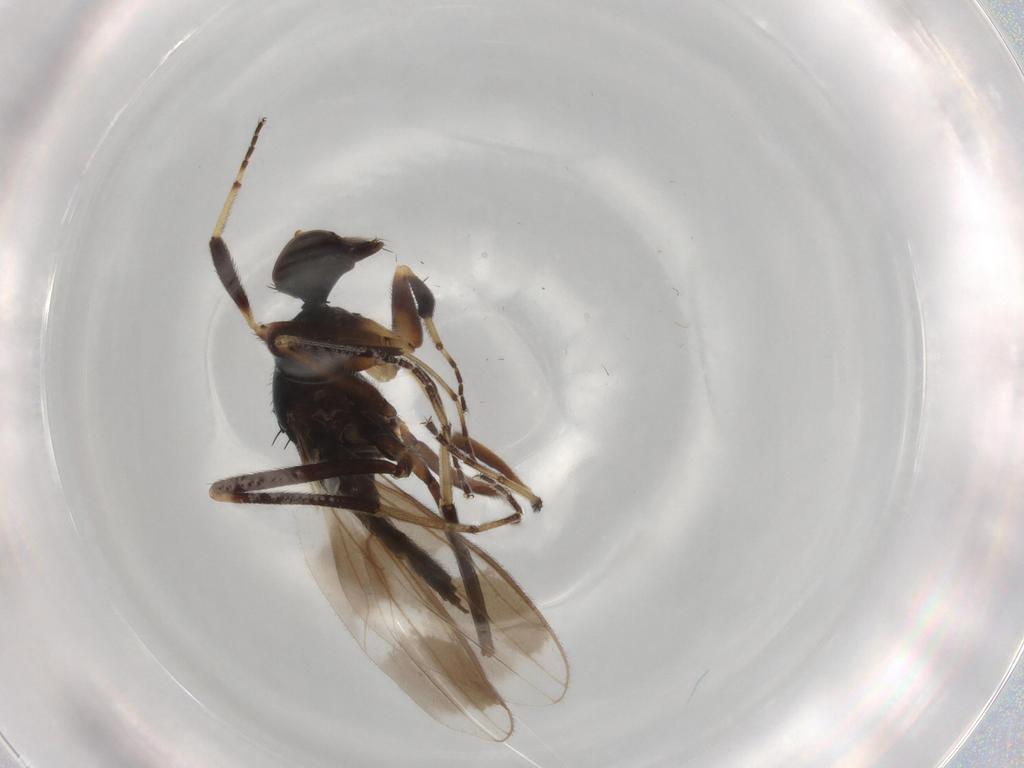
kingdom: Animalia
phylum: Arthropoda
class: Insecta
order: Diptera
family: Hybotidae
